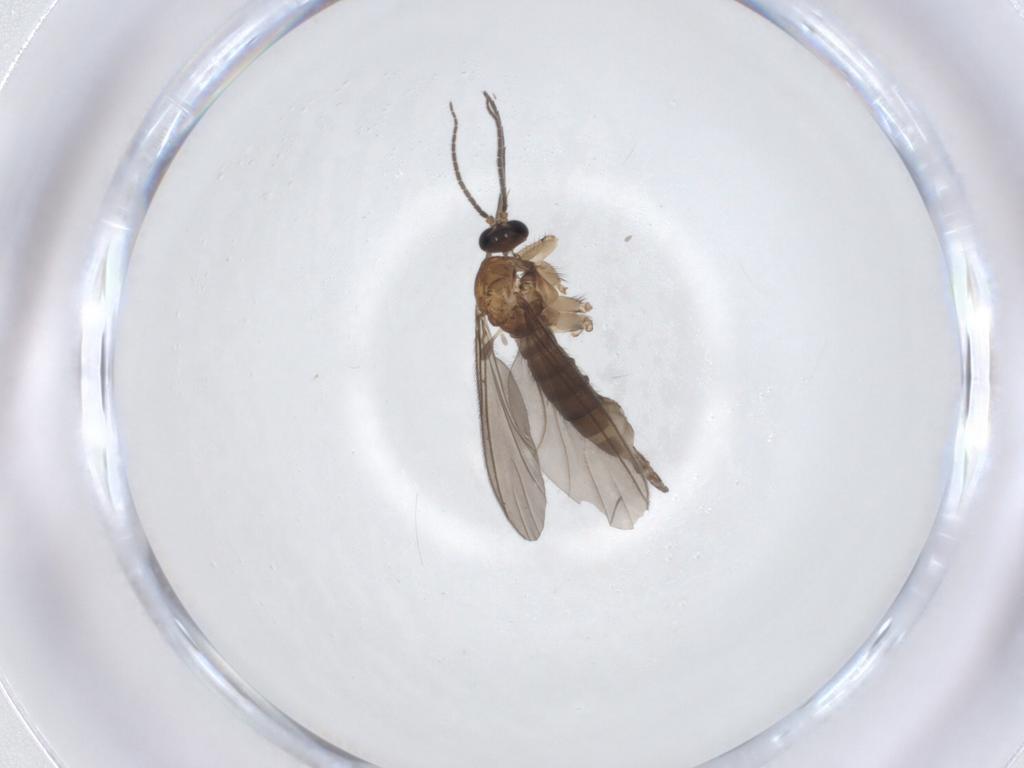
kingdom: Animalia
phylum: Arthropoda
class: Insecta
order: Diptera
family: Sciaridae
